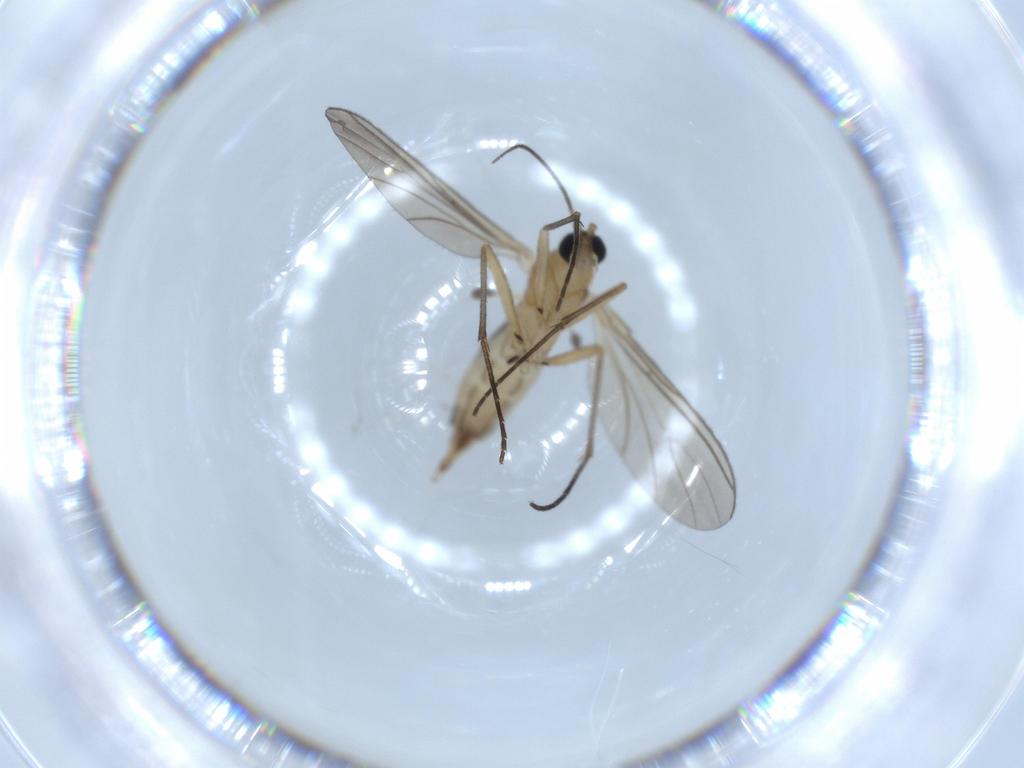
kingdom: Animalia
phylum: Arthropoda
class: Insecta
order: Diptera
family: Sciaridae
